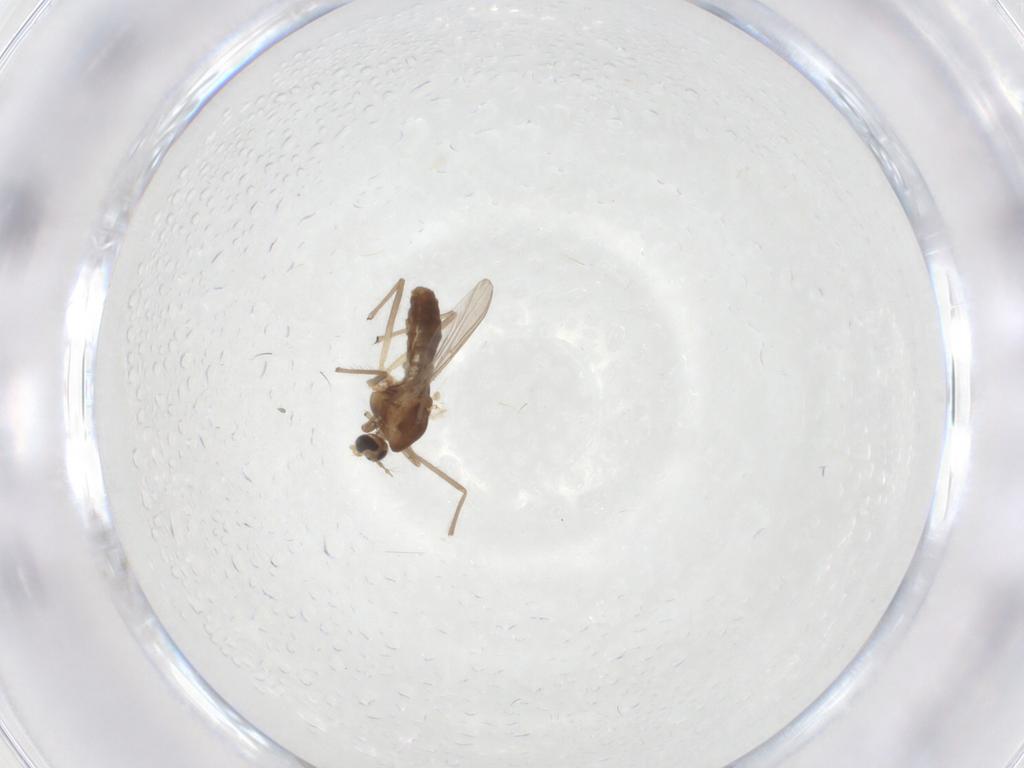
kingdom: Animalia
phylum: Arthropoda
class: Insecta
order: Diptera
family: Chironomidae
